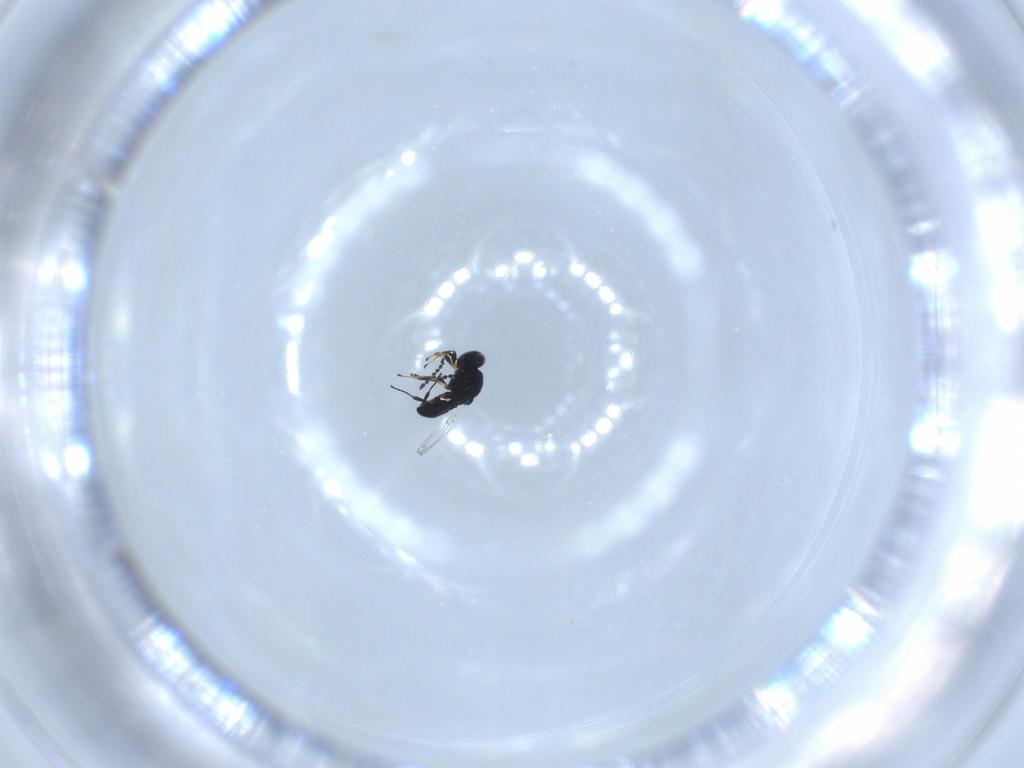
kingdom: Animalia
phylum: Arthropoda
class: Insecta
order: Hymenoptera
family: Platygastridae
